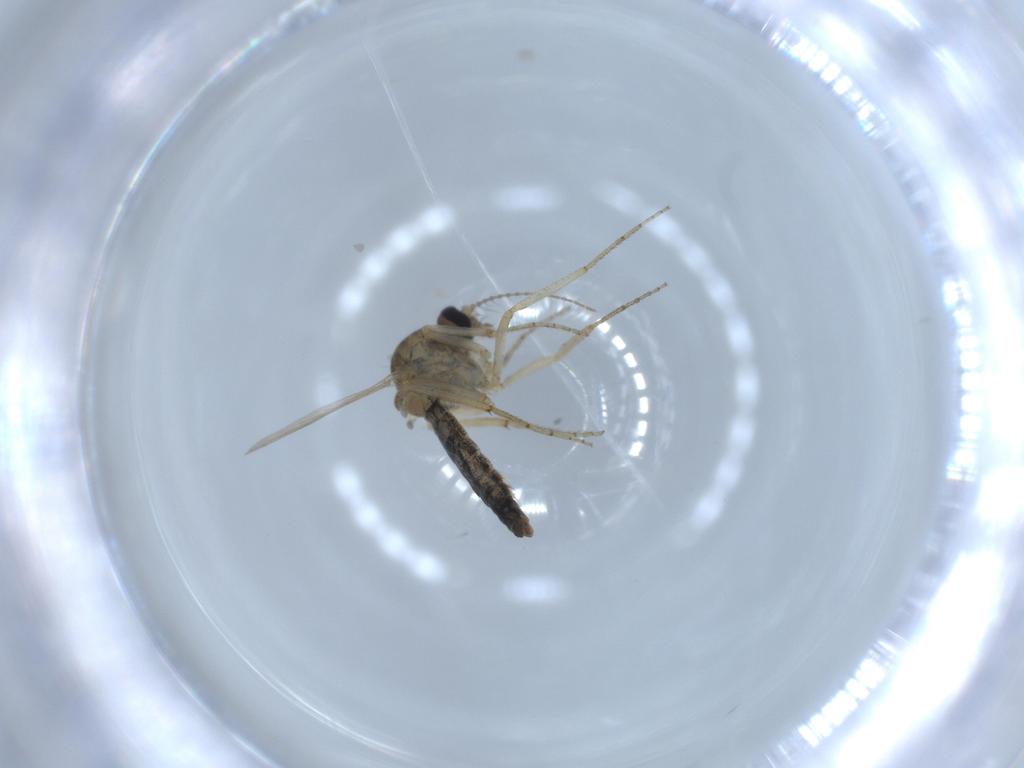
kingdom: Animalia
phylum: Arthropoda
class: Insecta
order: Diptera
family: Ceratopogonidae
